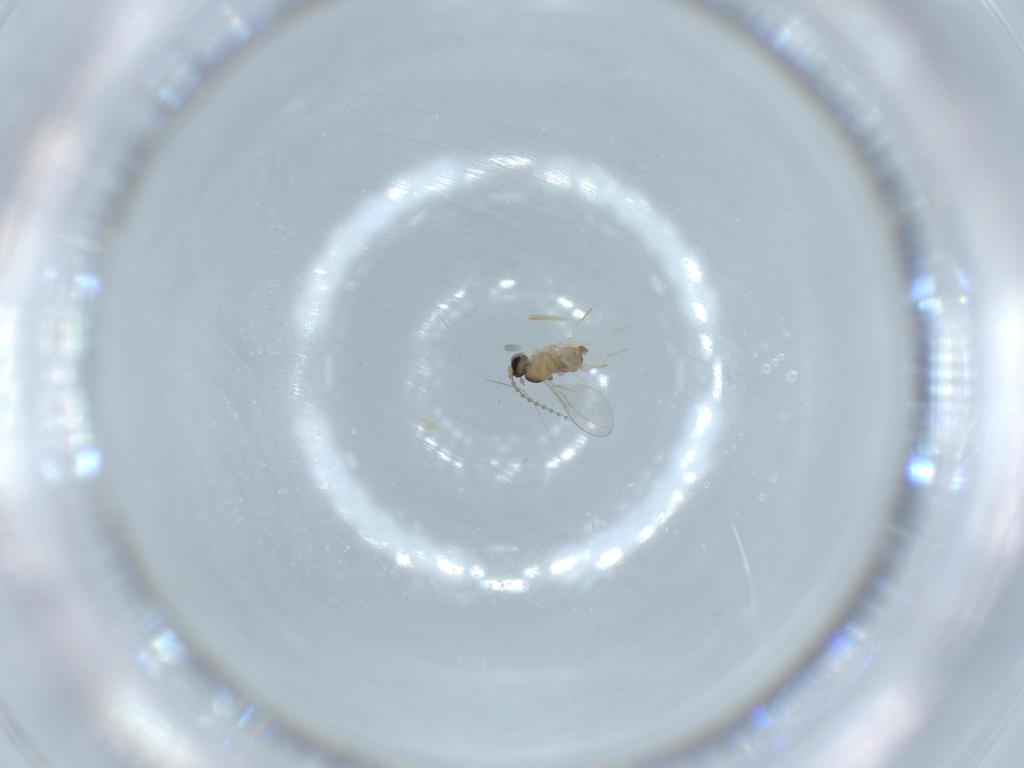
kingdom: Animalia
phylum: Arthropoda
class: Insecta
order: Diptera
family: Cecidomyiidae
